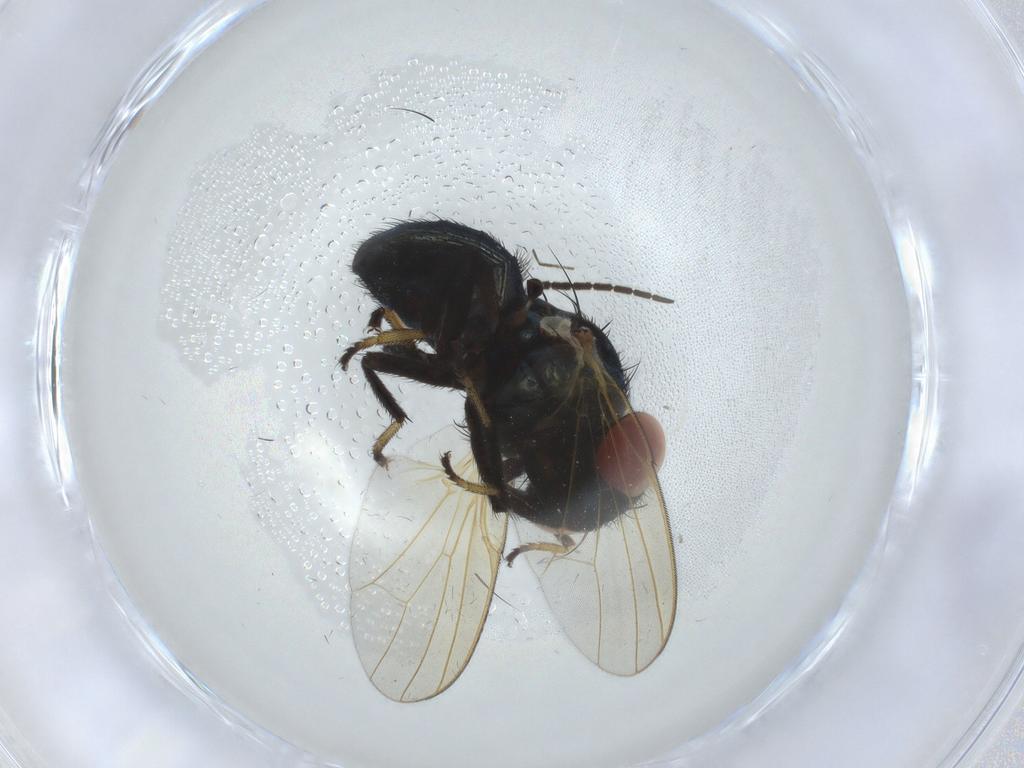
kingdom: Animalia
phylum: Arthropoda
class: Insecta
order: Diptera
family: Lonchaeidae
